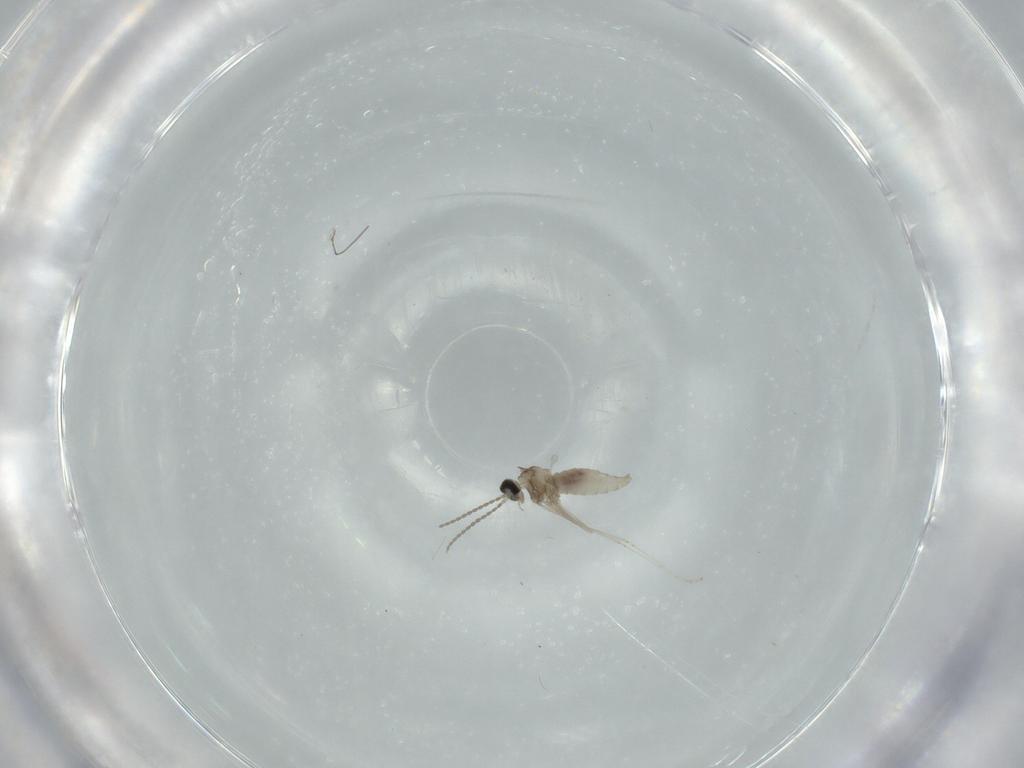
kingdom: Animalia
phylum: Arthropoda
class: Insecta
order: Diptera
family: Cecidomyiidae
